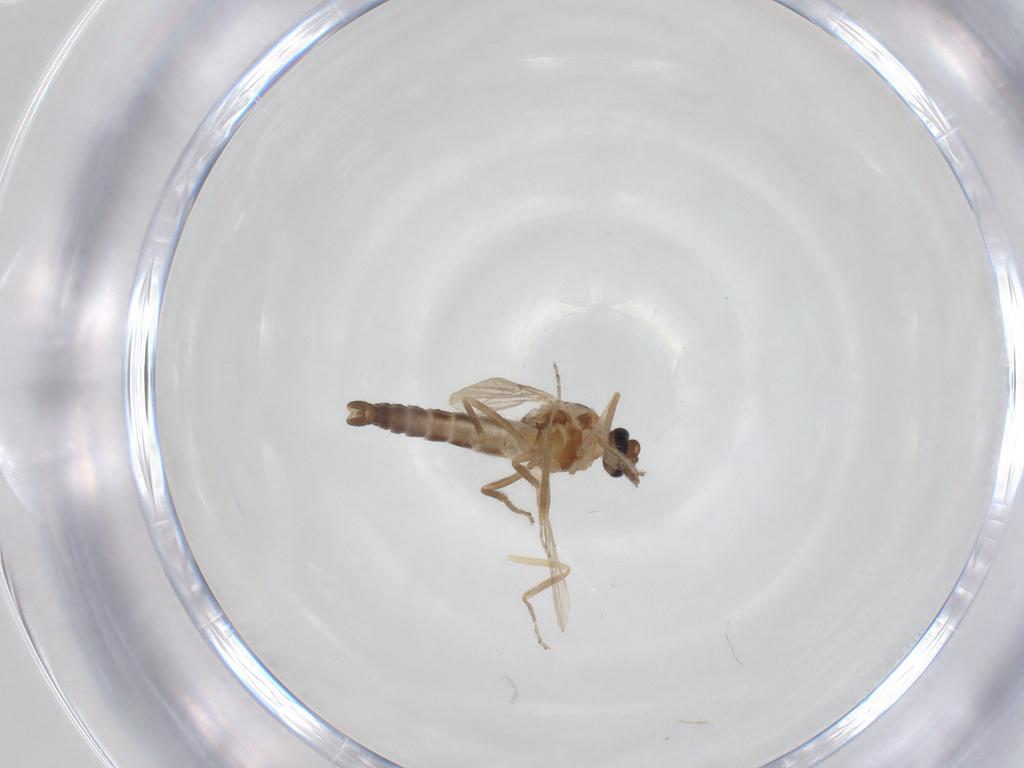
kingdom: Animalia
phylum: Arthropoda
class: Insecta
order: Diptera
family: Ceratopogonidae
